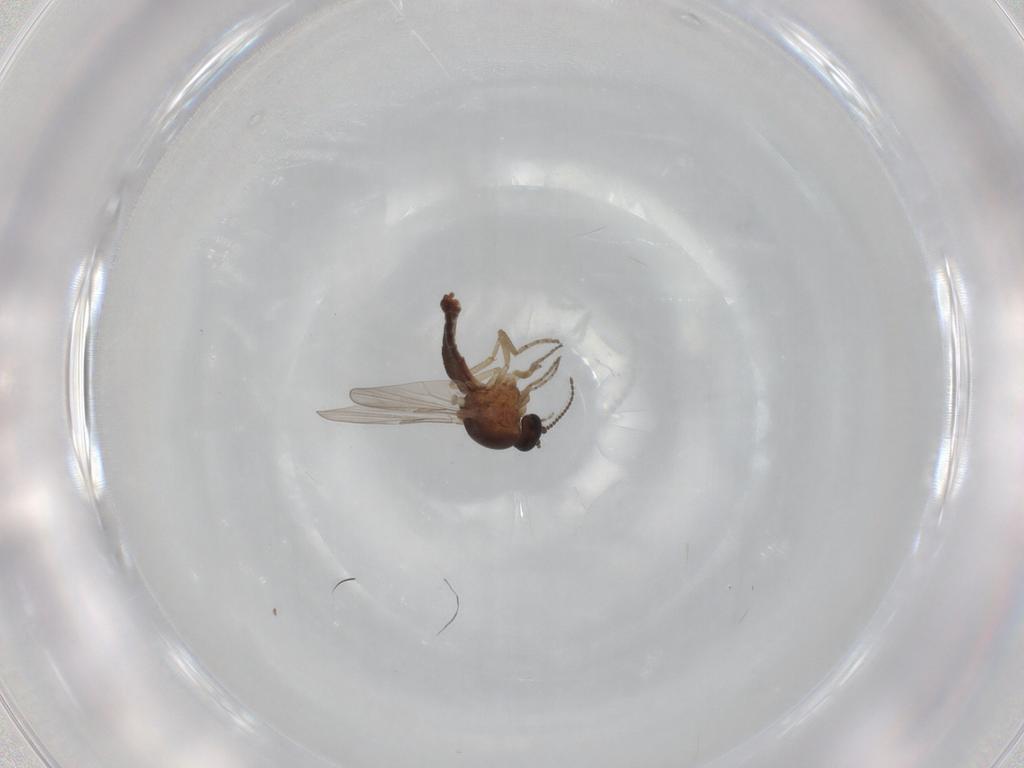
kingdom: Animalia
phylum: Arthropoda
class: Insecta
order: Diptera
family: Ceratopogonidae
